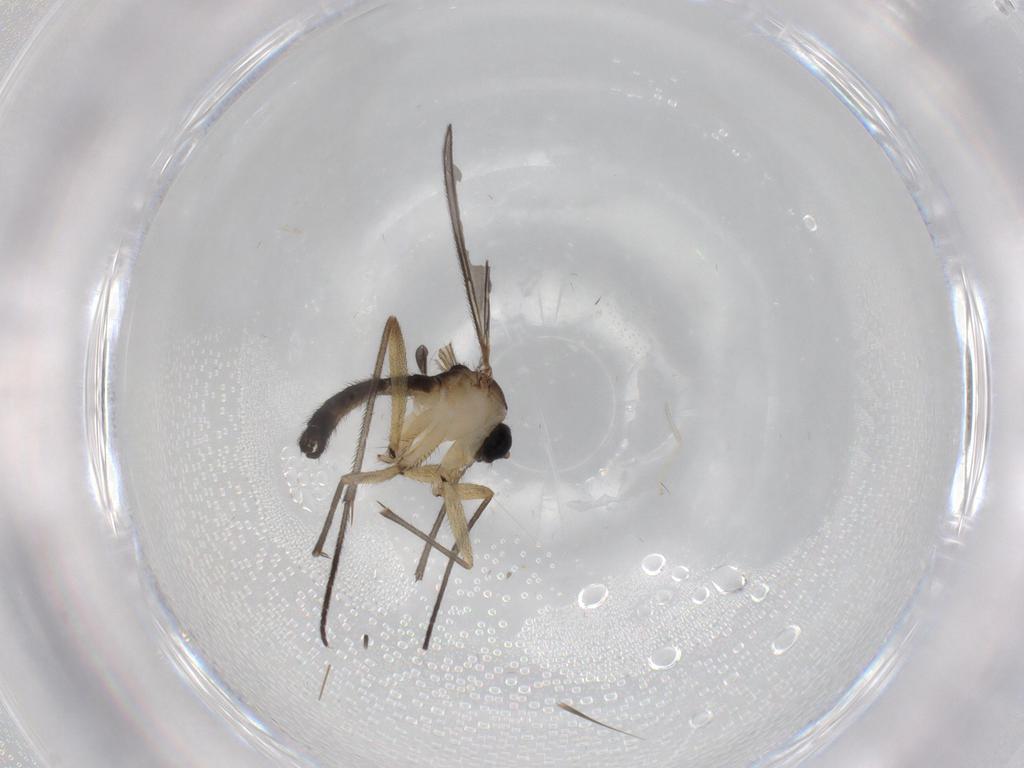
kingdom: Animalia
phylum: Arthropoda
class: Insecta
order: Diptera
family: Sciaridae
